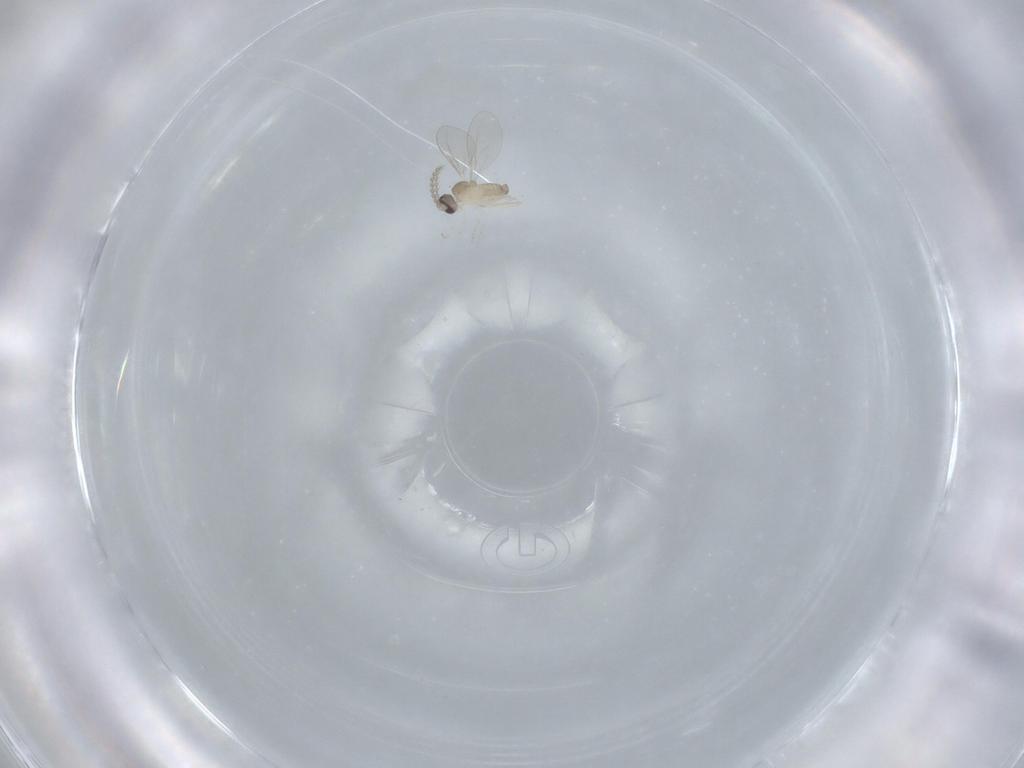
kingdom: Animalia
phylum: Arthropoda
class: Insecta
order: Diptera
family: Cecidomyiidae
